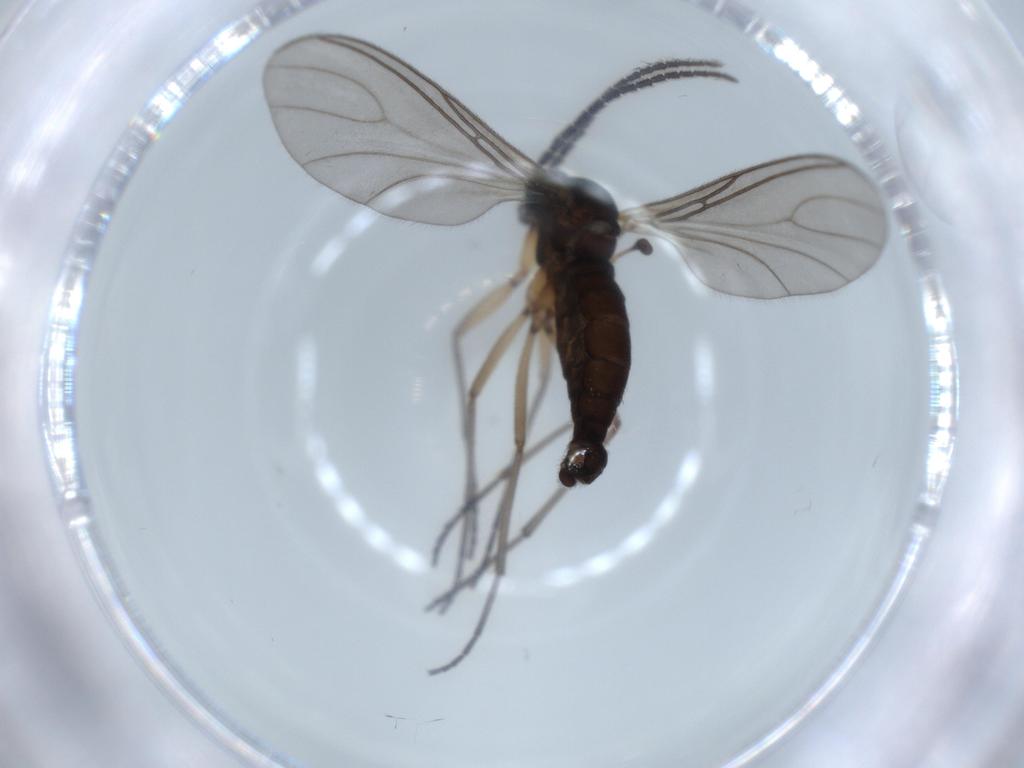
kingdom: Animalia
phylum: Arthropoda
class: Insecta
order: Diptera
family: Sciaridae
